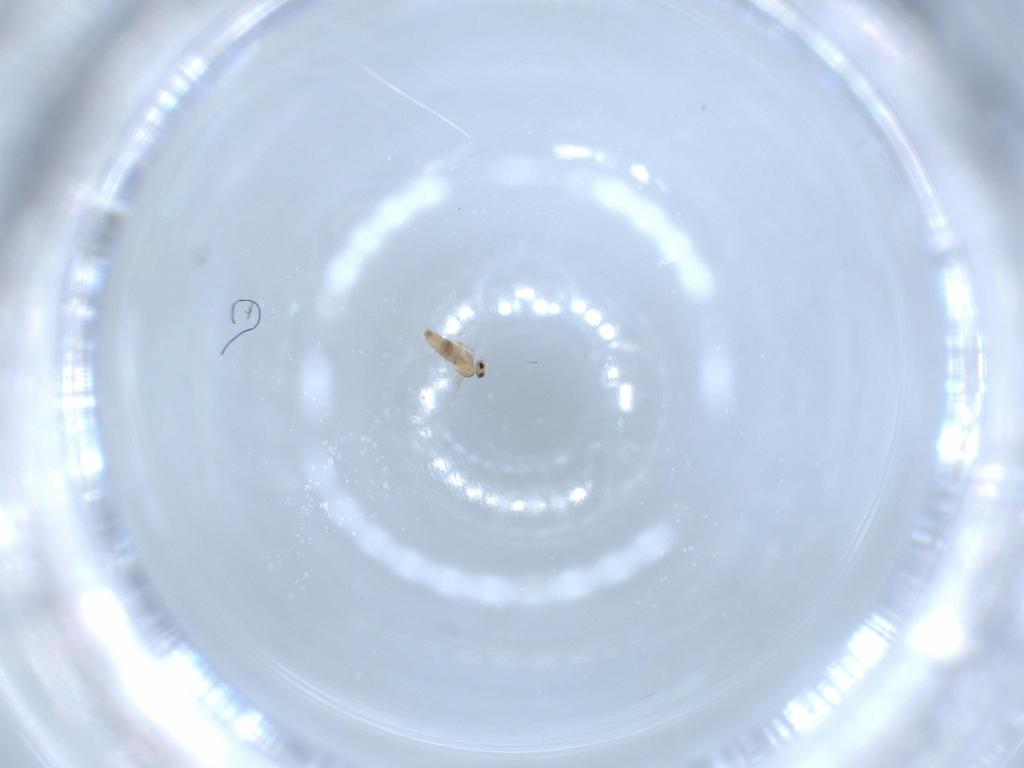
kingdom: Animalia
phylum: Arthropoda
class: Insecta
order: Diptera
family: Cecidomyiidae
